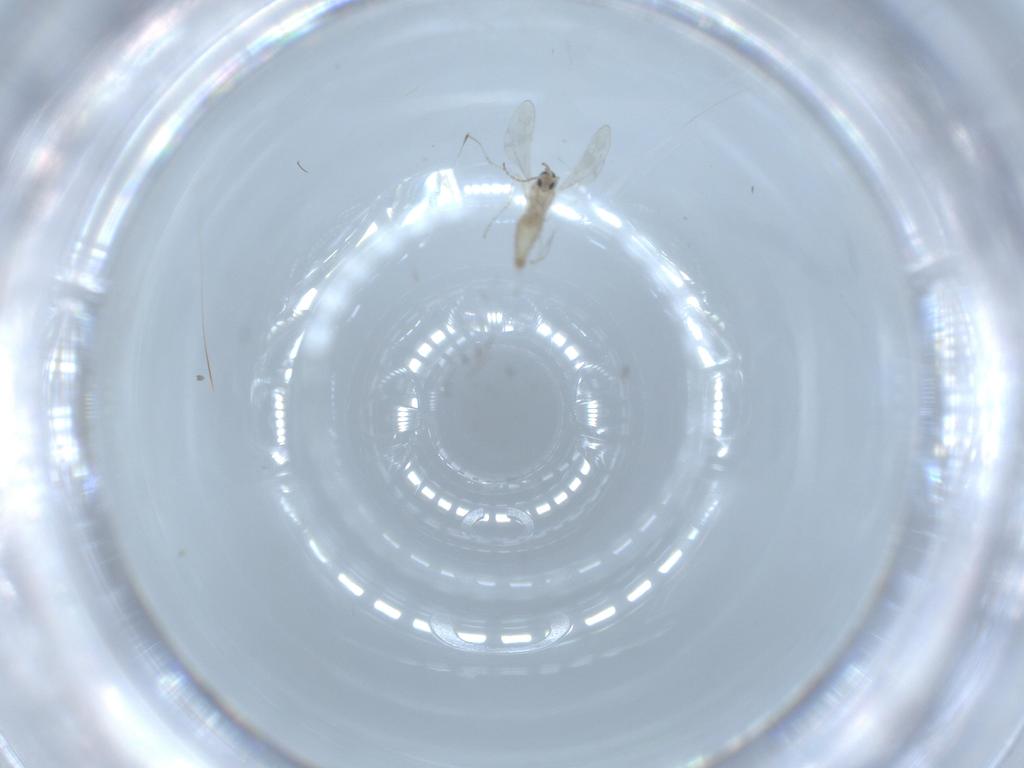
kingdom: Animalia
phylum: Arthropoda
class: Insecta
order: Diptera
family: Cecidomyiidae
